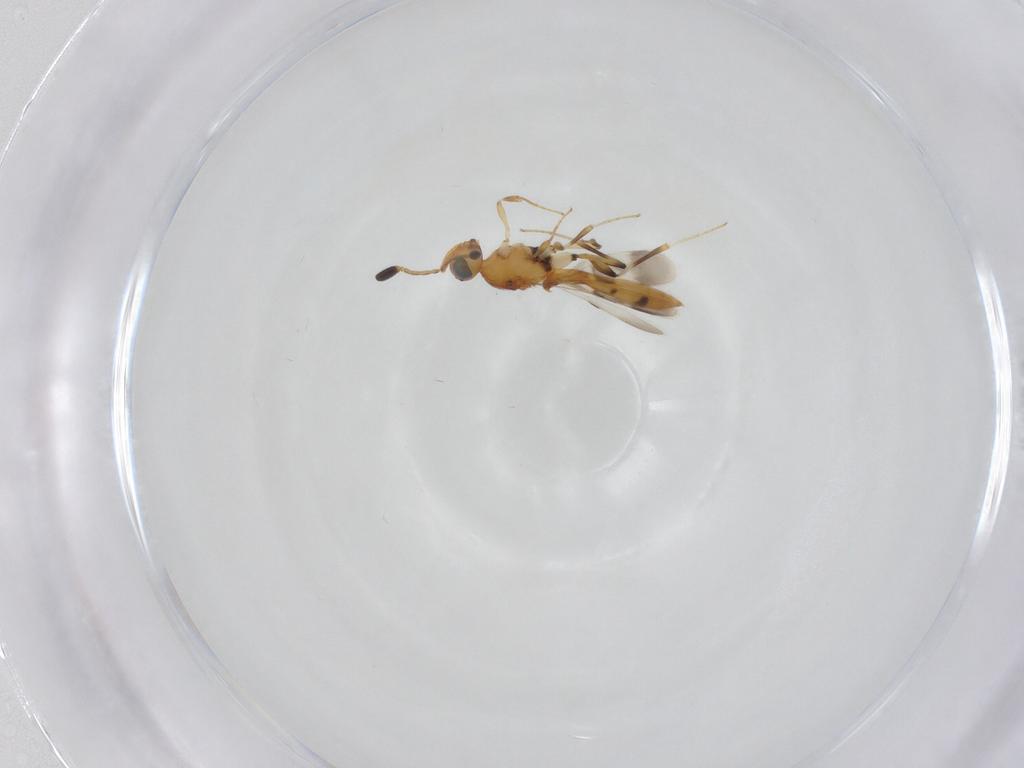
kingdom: Animalia
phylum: Arthropoda
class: Insecta
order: Hymenoptera
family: Scelionidae
